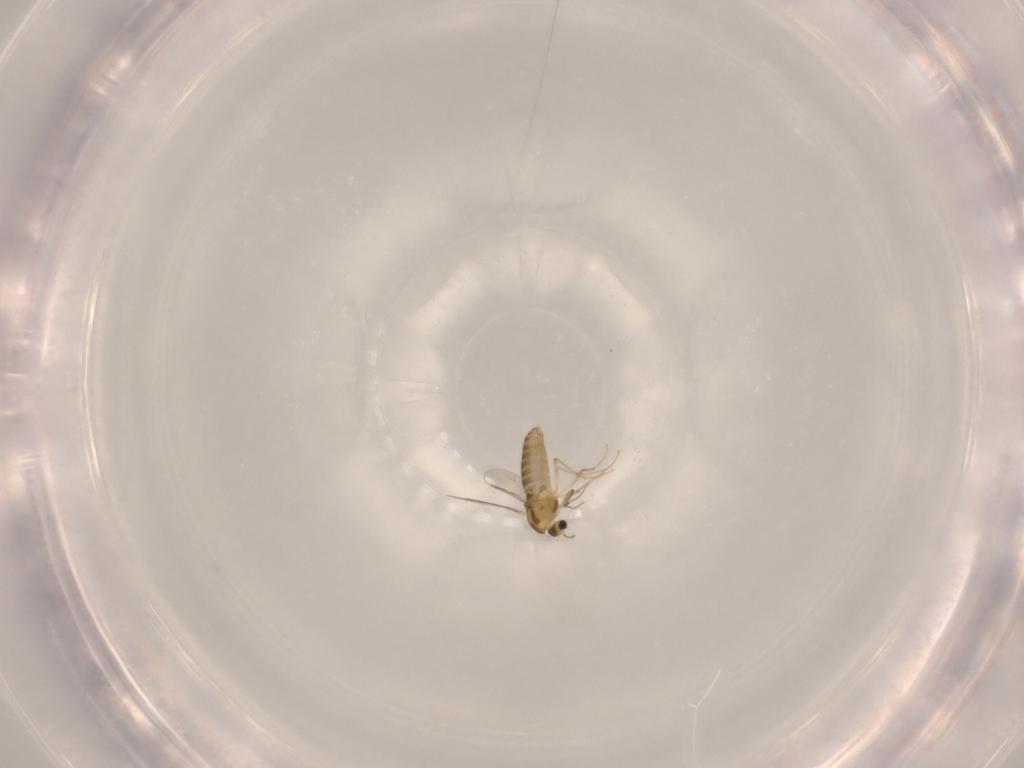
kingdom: Animalia
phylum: Arthropoda
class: Insecta
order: Diptera
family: Chironomidae
